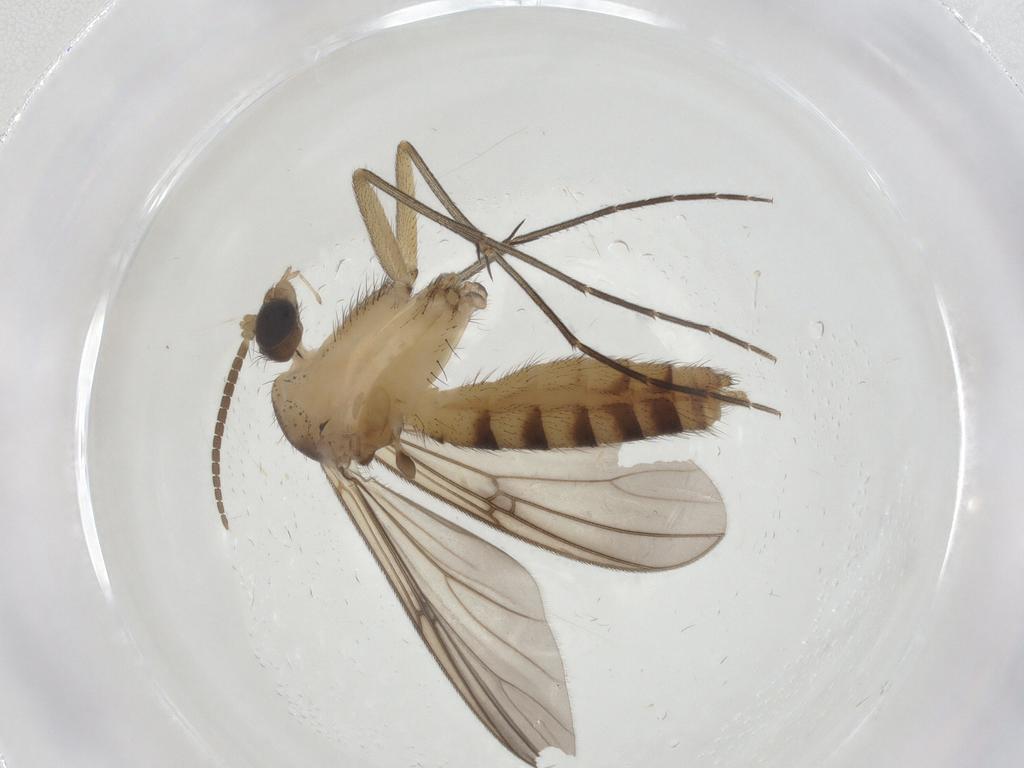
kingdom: Animalia
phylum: Arthropoda
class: Insecta
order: Diptera
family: Mycetophilidae
